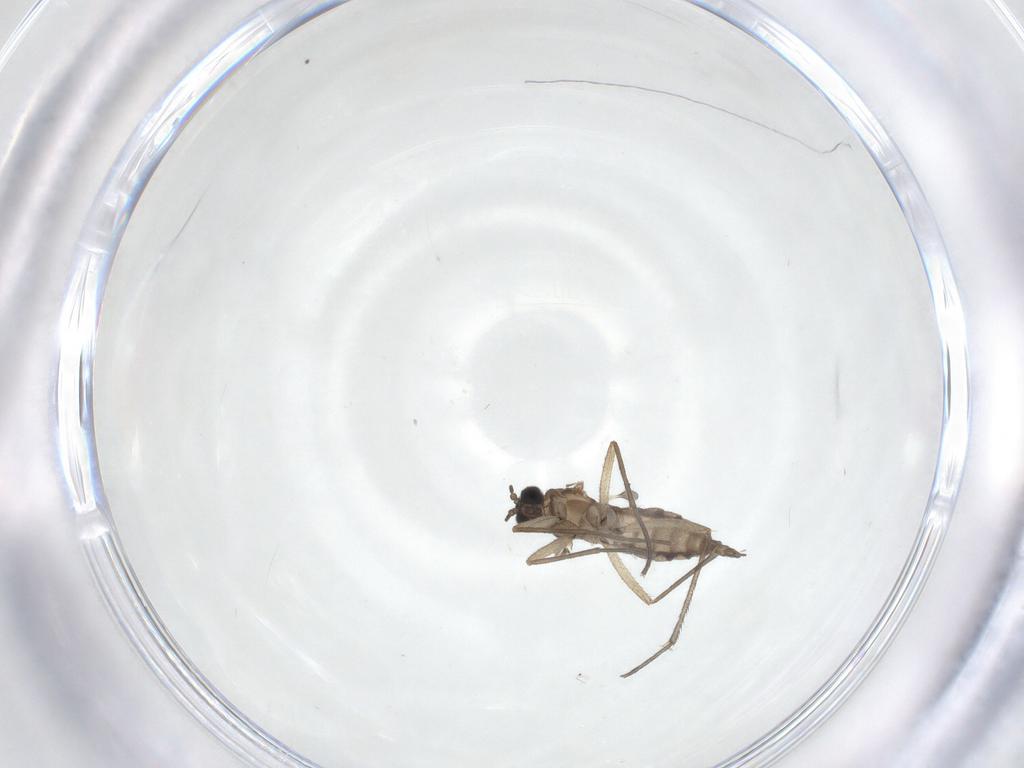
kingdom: Animalia
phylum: Arthropoda
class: Insecta
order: Diptera
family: Sciaridae
